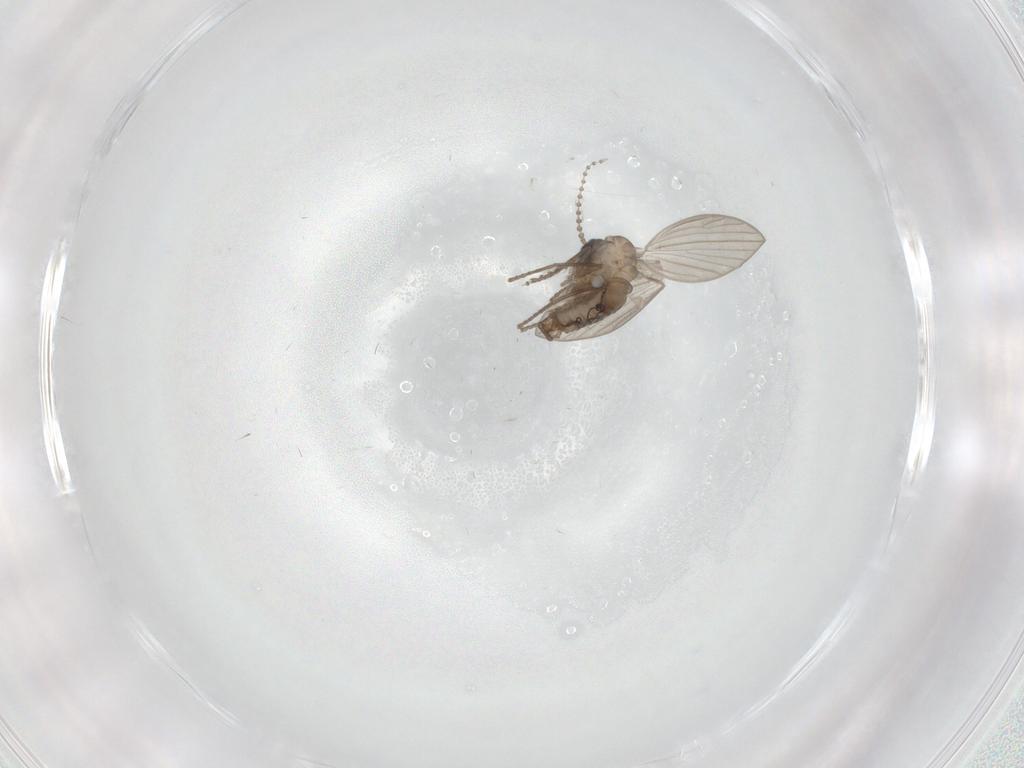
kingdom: Animalia
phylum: Arthropoda
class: Insecta
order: Diptera
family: Psychodidae
